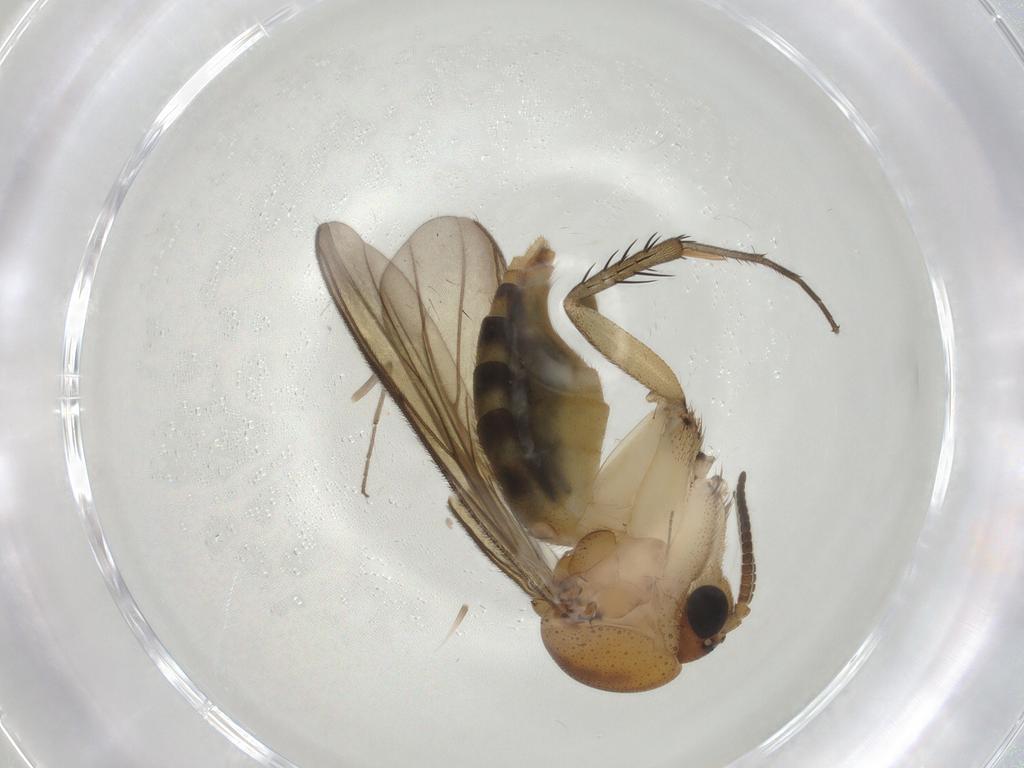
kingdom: Animalia
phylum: Arthropoda
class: Insecta
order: Diptera
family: Mycetophilidae
